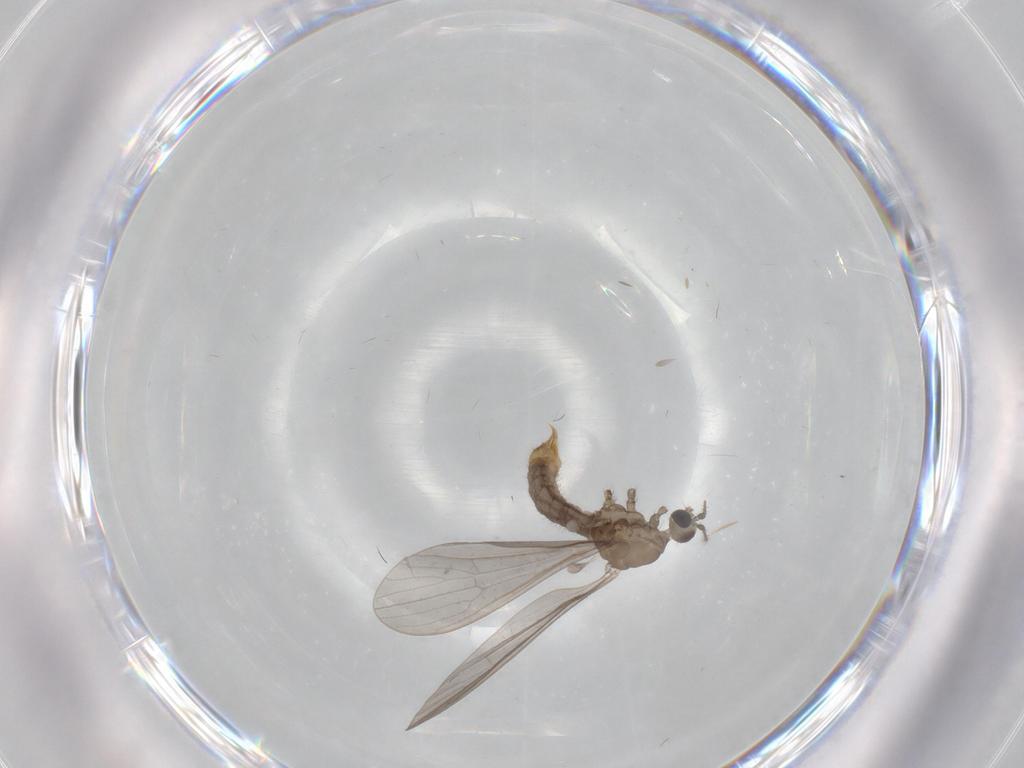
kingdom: Animalia
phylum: Arthropoda
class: Insecta
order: Diptera
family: Limoniidae
